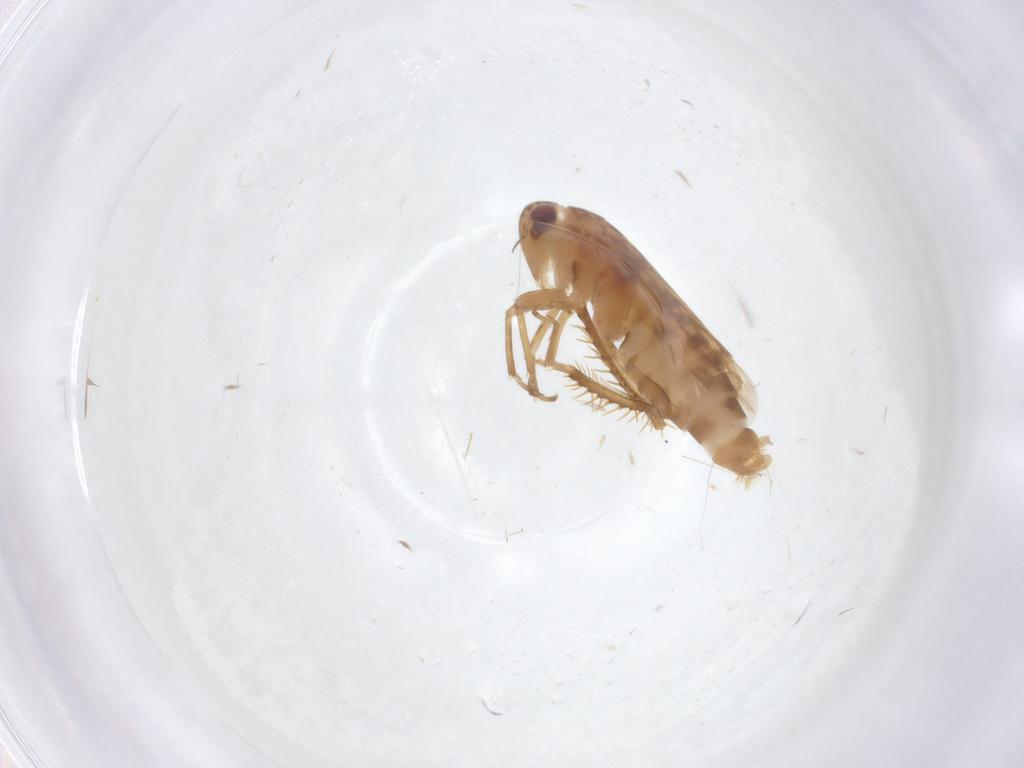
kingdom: Animalia
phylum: Arthropoda
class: Insecta
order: Hemiptera
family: Cicadellidae
